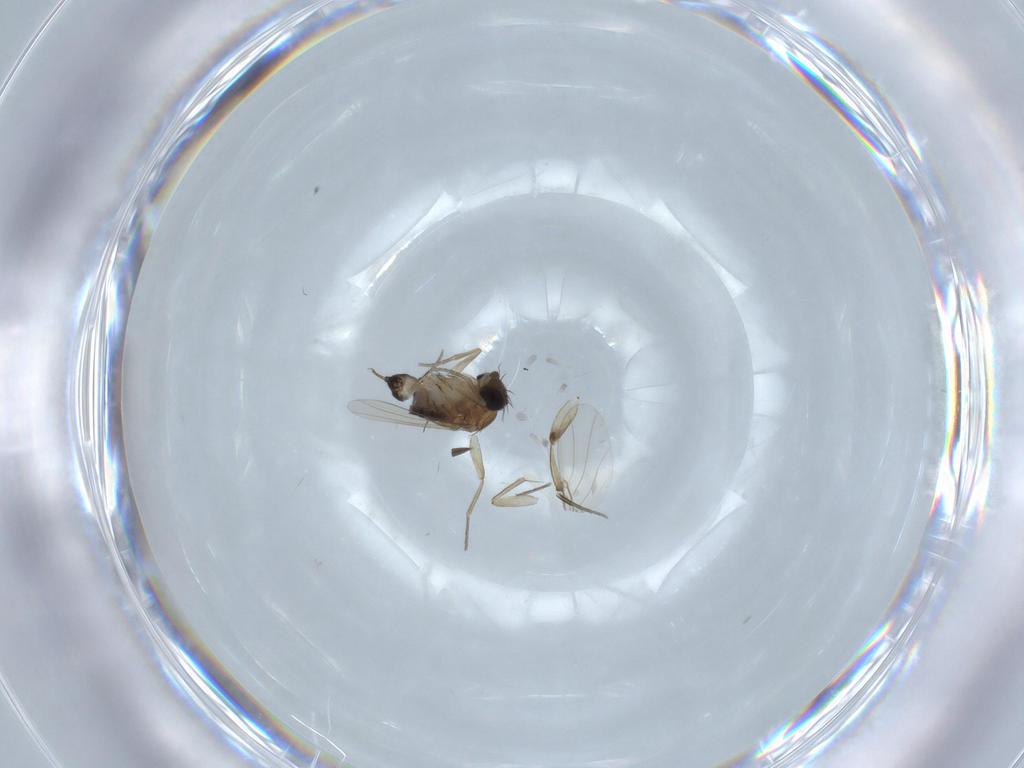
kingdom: Animalia
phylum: Arthropoda
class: Insecta
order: Diptera
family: Phoridae
